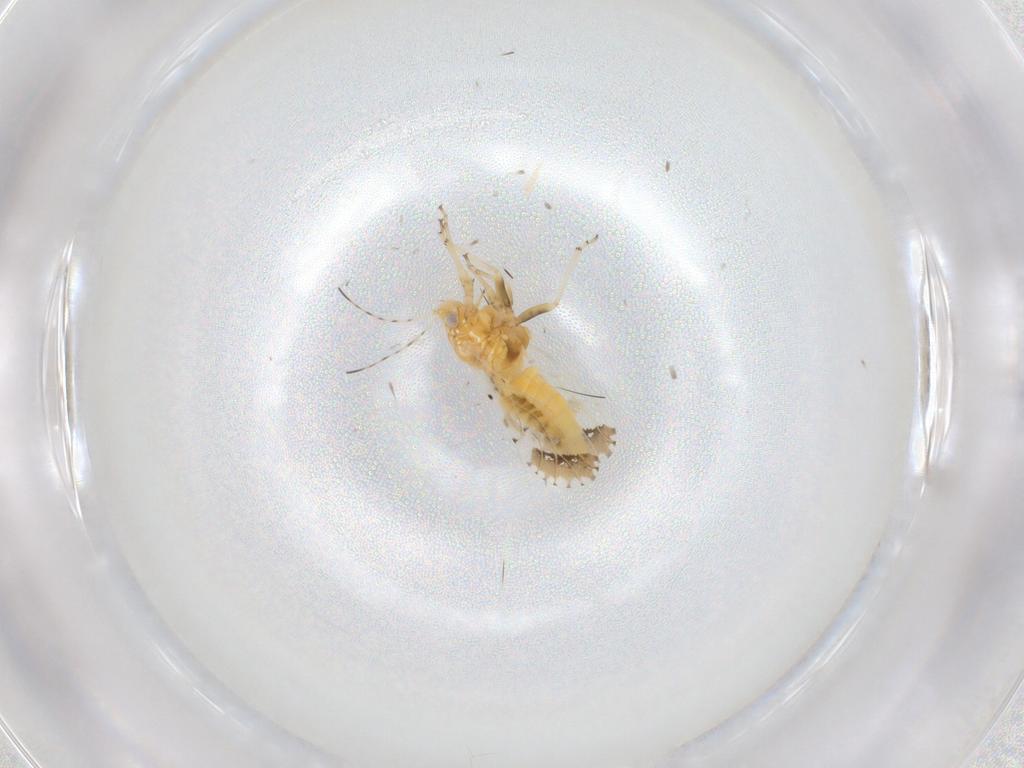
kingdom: Animalia
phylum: Arthropoda
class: Insecta
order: Hemiptera
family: Psyllidae
